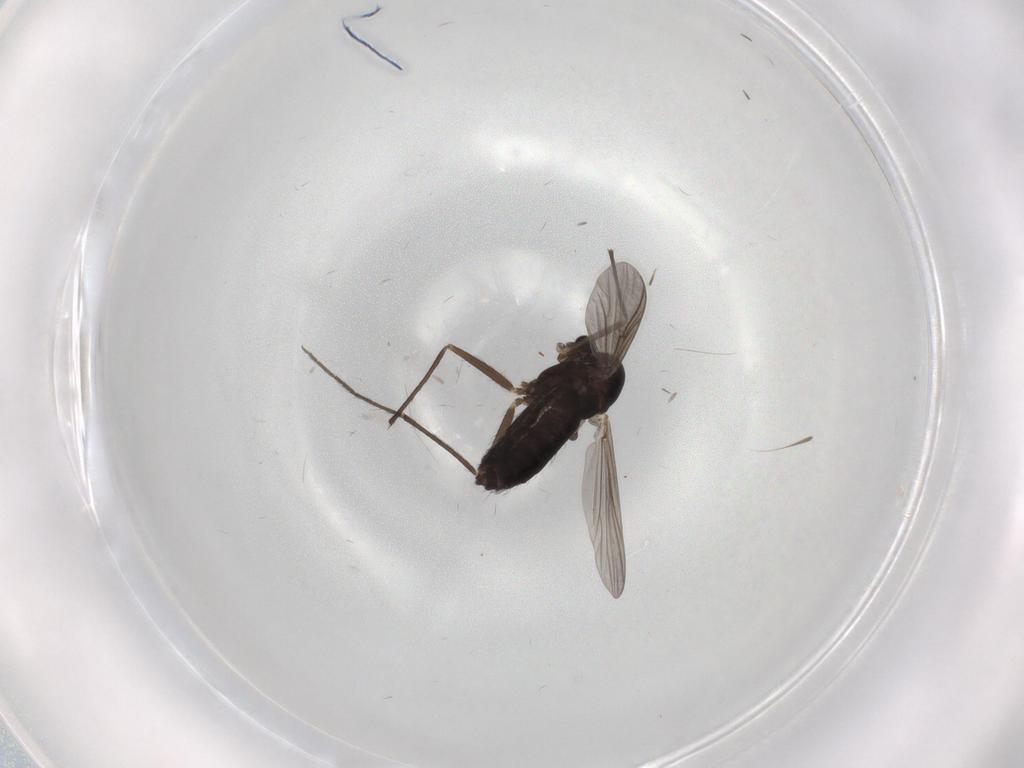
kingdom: Animalia
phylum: Arthropoda
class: Insecta
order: Diptera
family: Chironomidae
